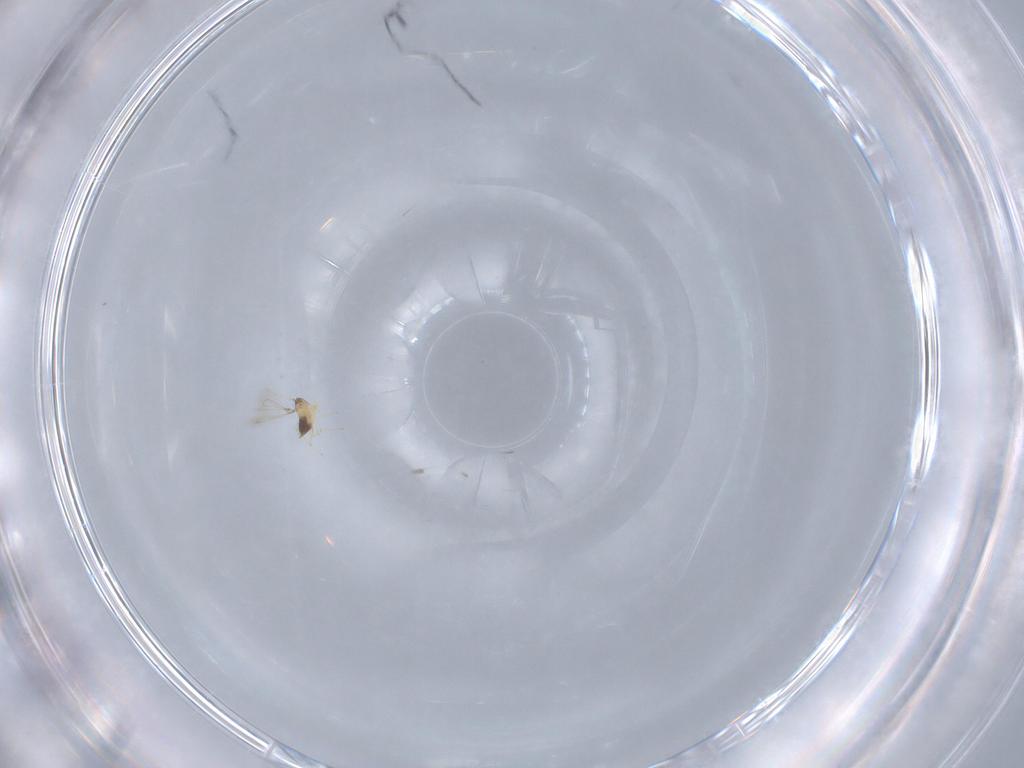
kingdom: Animalia
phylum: Arthropoda
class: Insecta
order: Hymenoptera
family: Mymaridae
